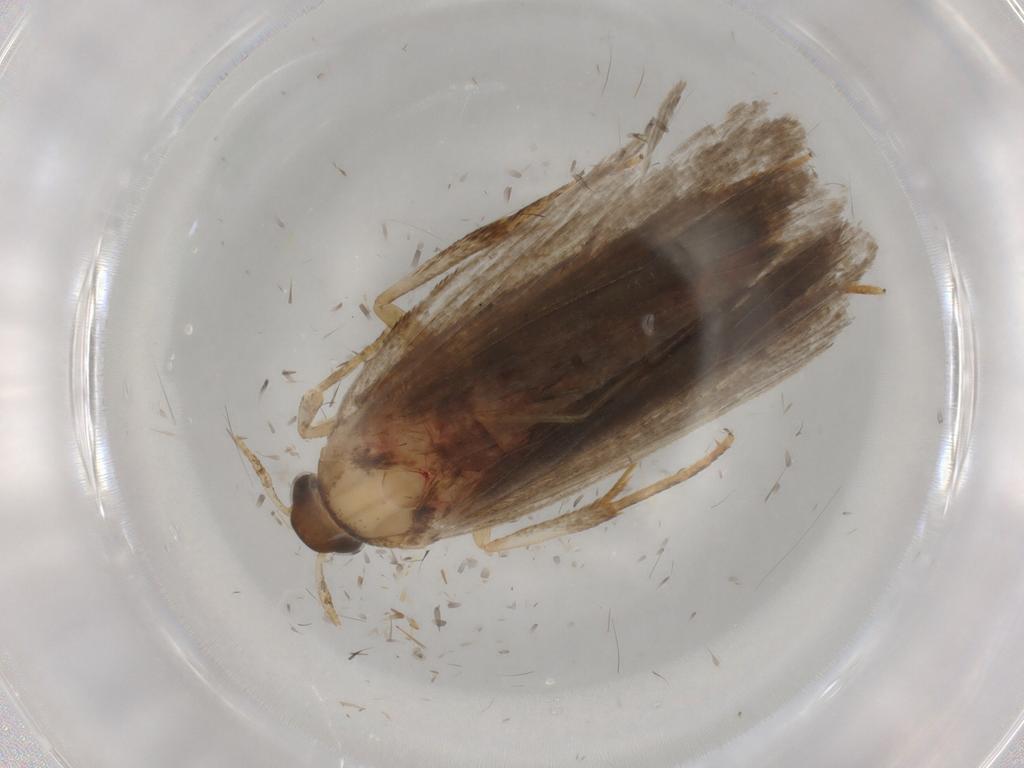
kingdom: Animalia
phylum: Arthropoda
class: Insecta
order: Lepidoptera
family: Autostichidae
